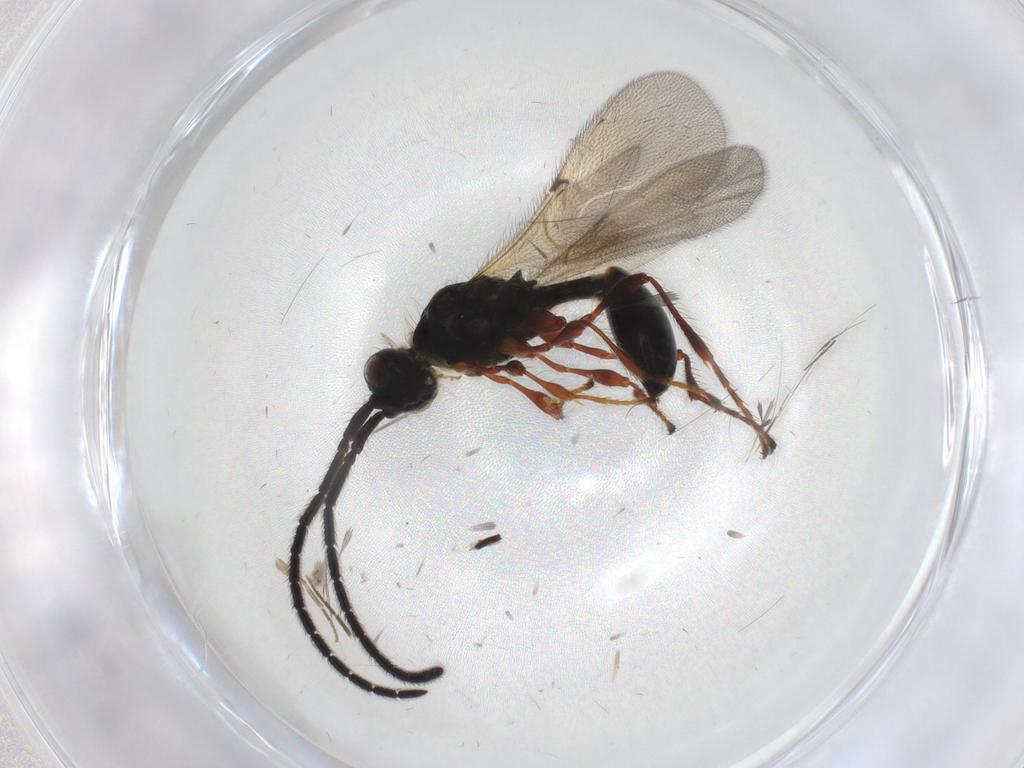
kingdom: Animalia
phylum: Arthropoda
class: Insecta
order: Hymenoptera
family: Diapriidae
